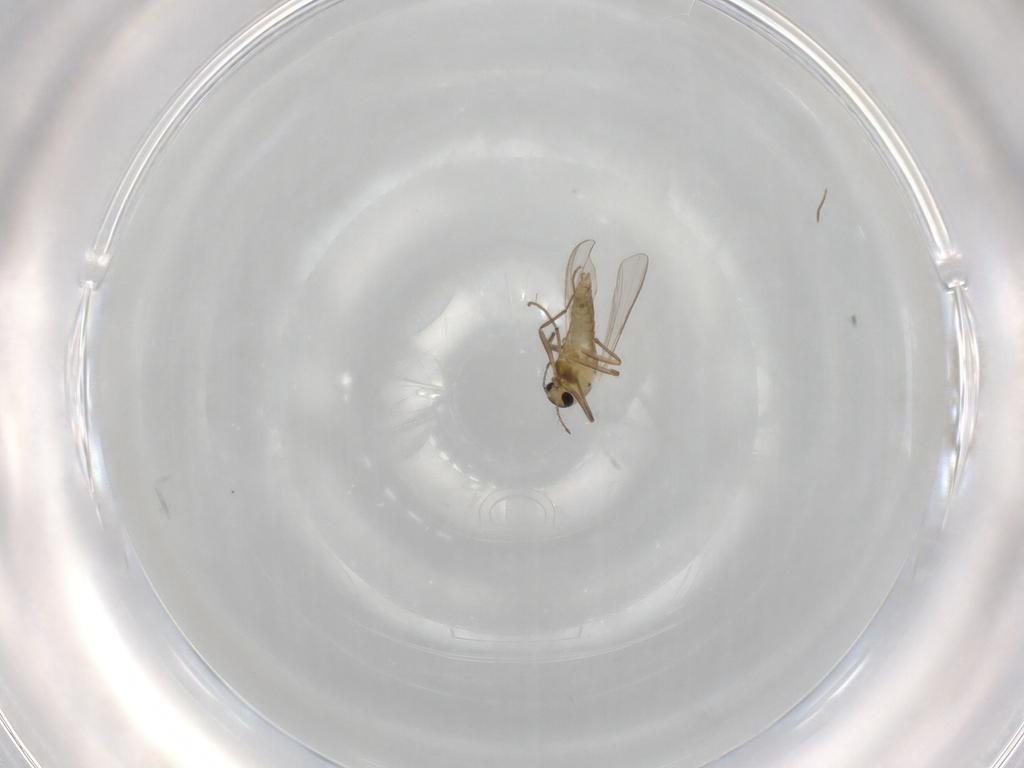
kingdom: Animalia
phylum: Arthropoda
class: Insecta
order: Diptera
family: Chironomidae
